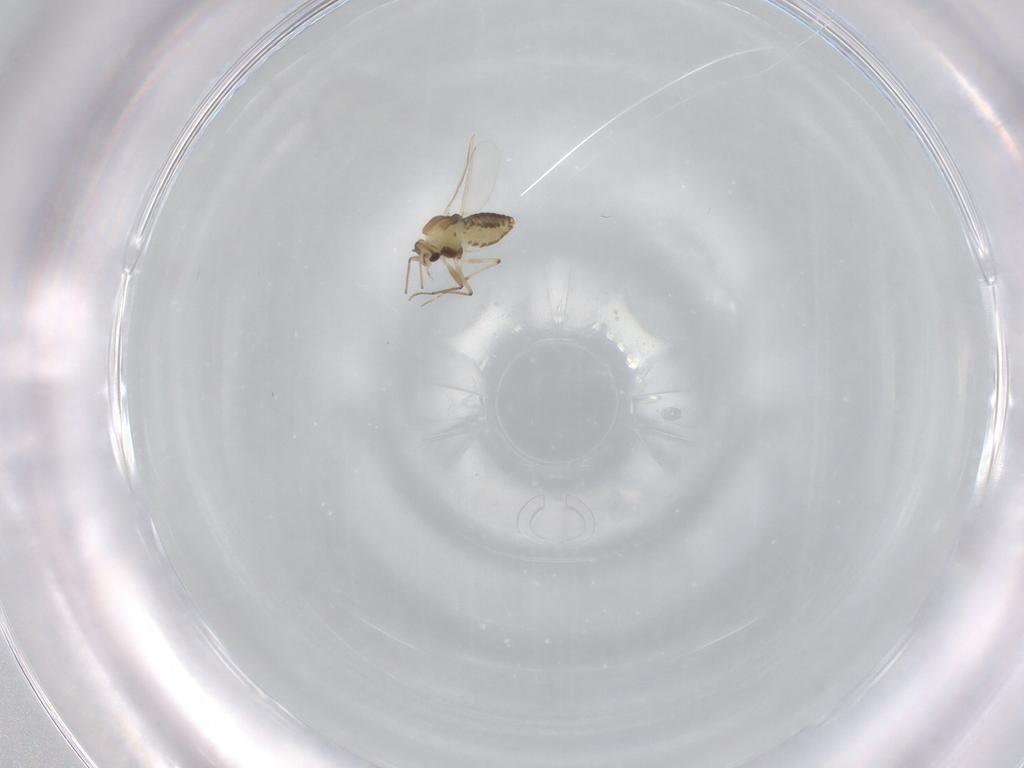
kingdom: Animalia
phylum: Arthropoda
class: Insecta
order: Diptera
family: Chironomidae
